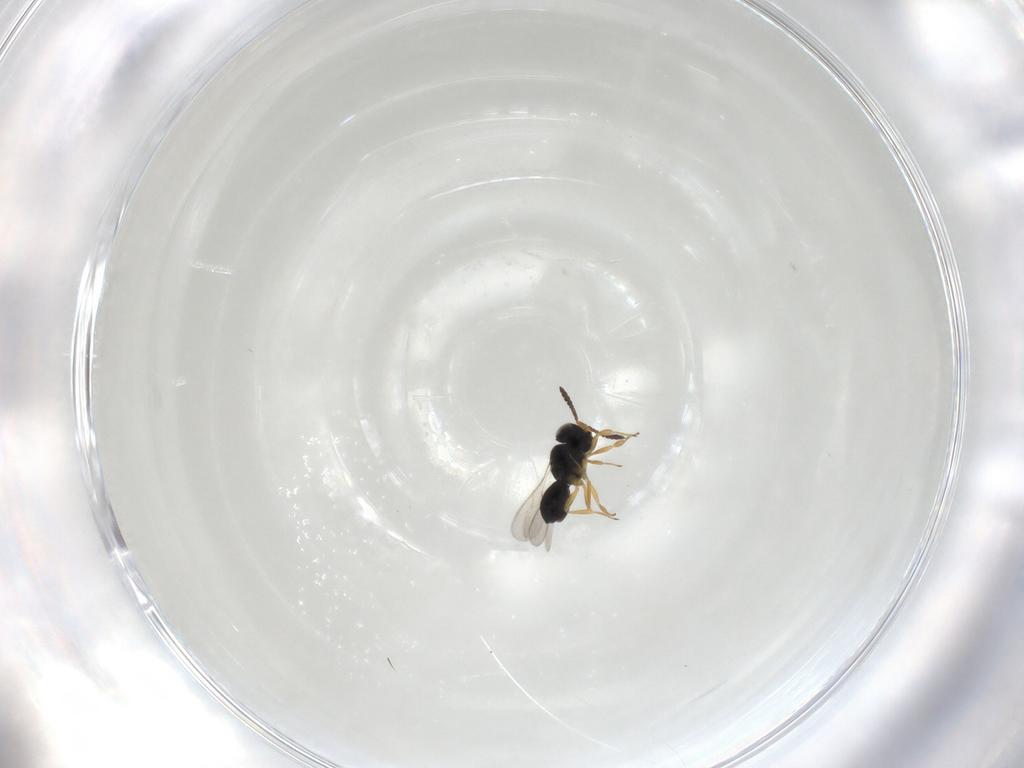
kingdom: Animalia
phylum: Arthropoda
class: Insecta
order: Hymenoptera
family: Scelionidae
